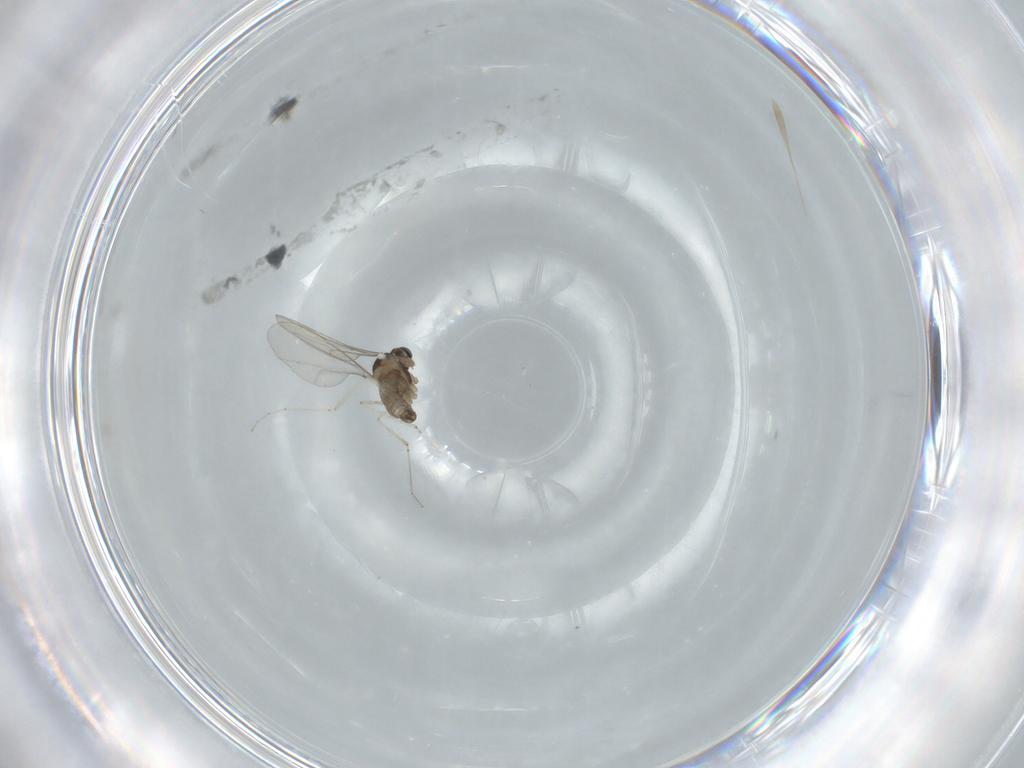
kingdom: Animalia
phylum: Arthropoda
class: Insecta
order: Diptera
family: Cecidomyiidae
